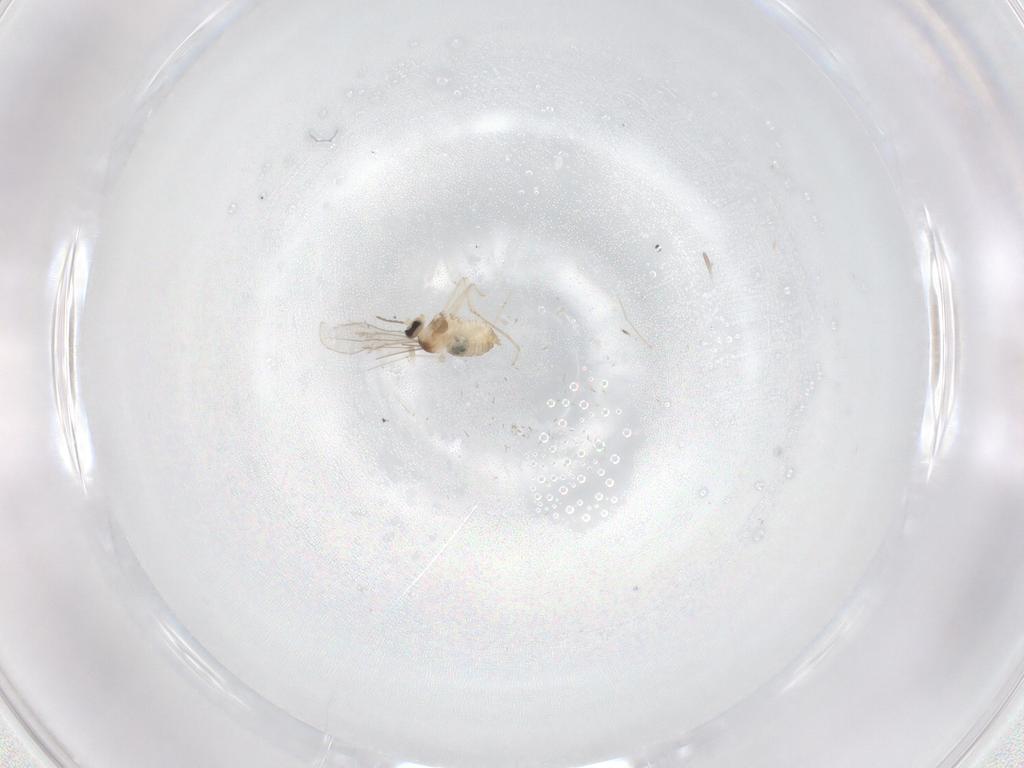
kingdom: Animalia
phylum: Arthropoda
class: Insecta
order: Diptera
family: Cecidomyiidae
